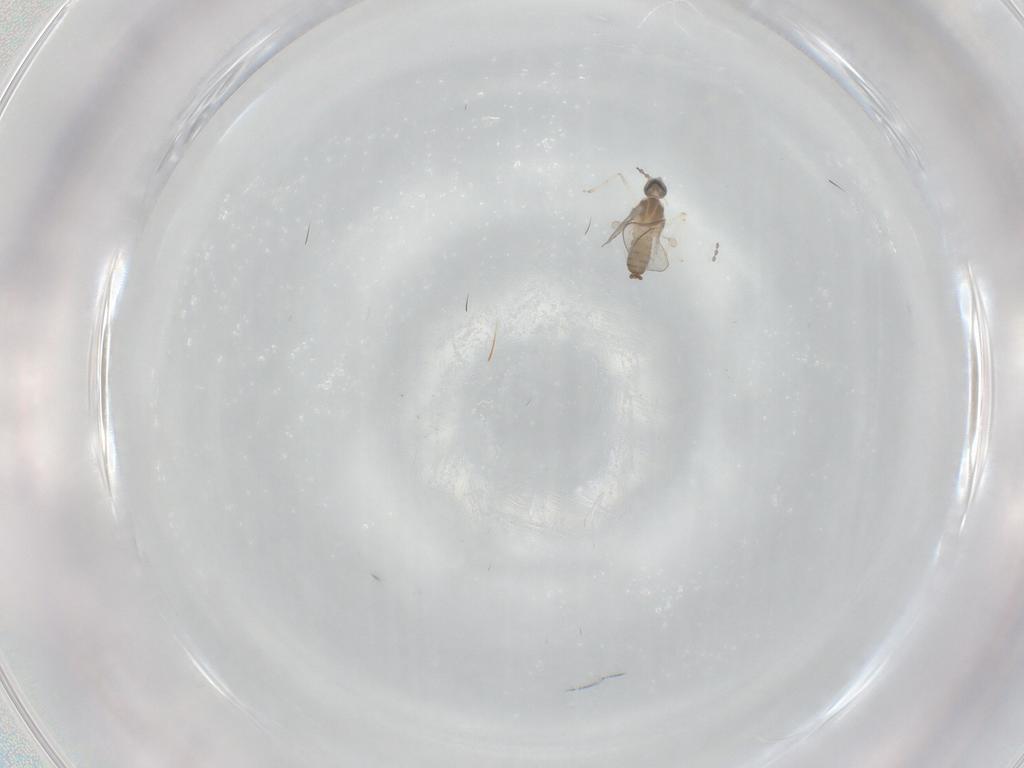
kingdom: Animalia
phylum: Arthropoda
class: Insecta
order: Diptera
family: Cecidomyiidae
